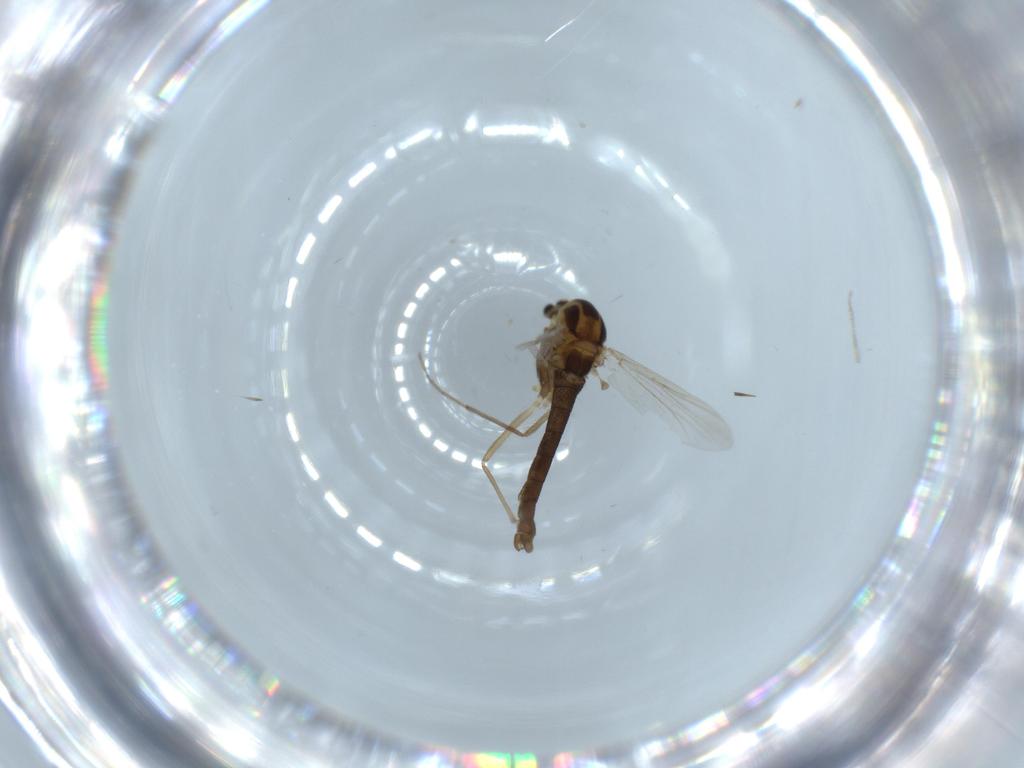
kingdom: Animalia
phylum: Arthropoda
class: Insecta
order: Diptera
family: Chironomidae
